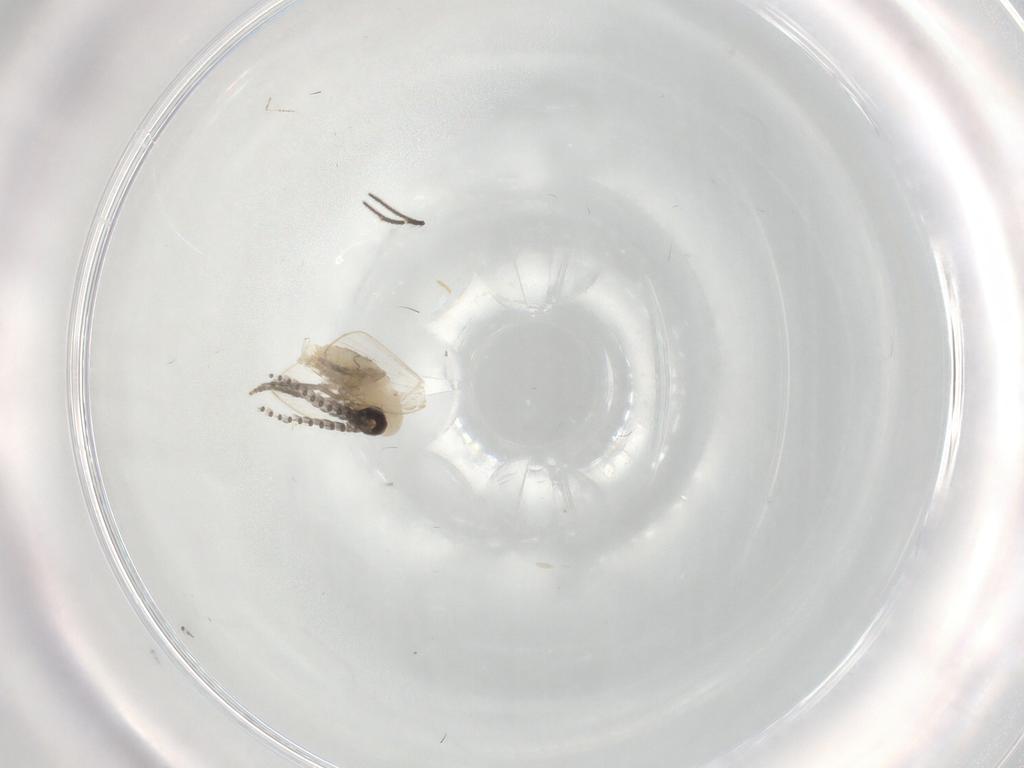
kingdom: Animalia
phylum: Arthropoda
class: Insecta
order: Diptera
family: Psychodidae
